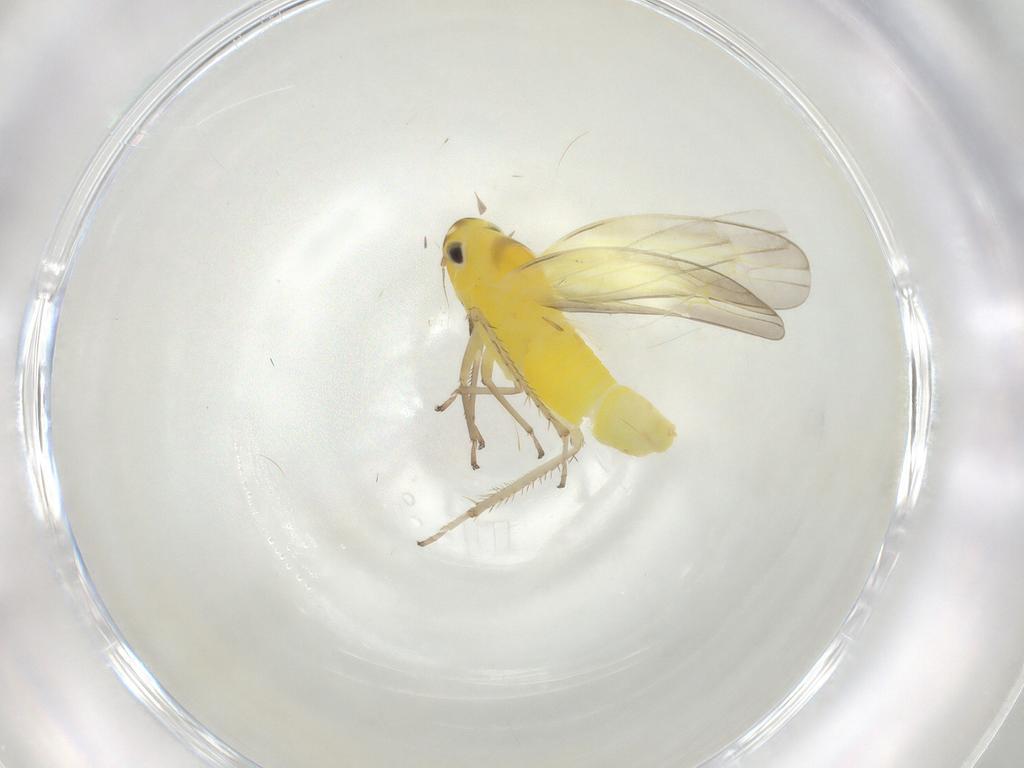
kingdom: Animalia
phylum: Arthropoda
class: Insecta
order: Hemiptera
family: Cicadellidae
